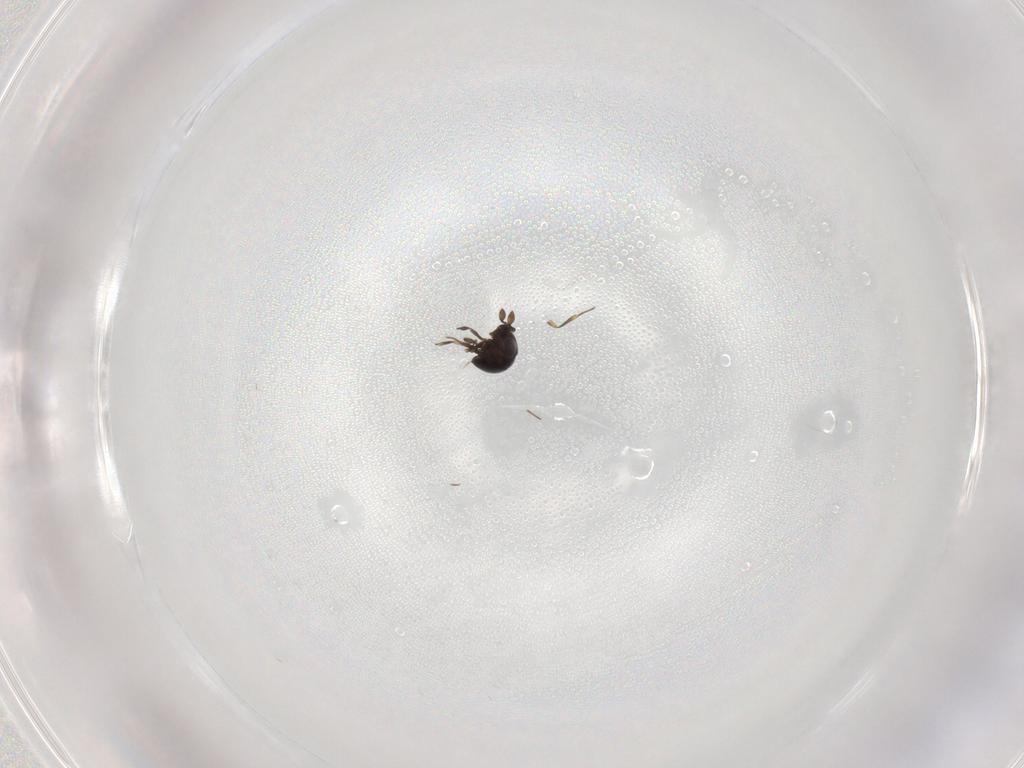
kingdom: Animalia
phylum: Arthropoda
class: Insecta
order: Hymenoptera
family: Scelionidae
